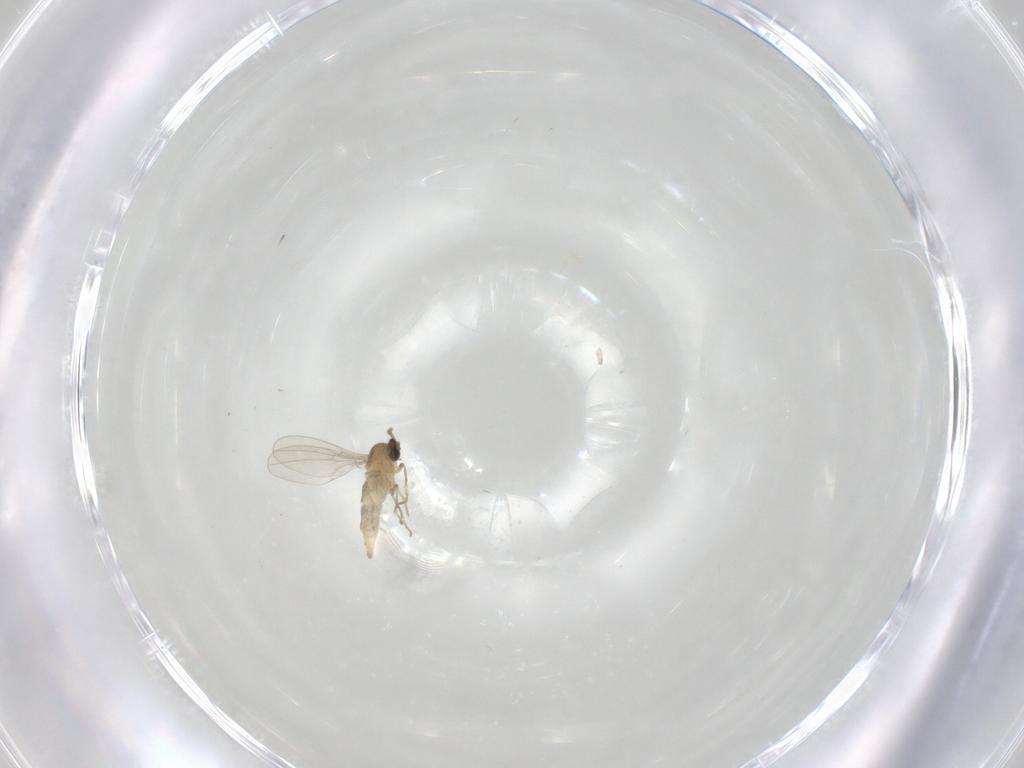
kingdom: Animalia
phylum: Arthropoda
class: Insecta
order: Diptera
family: Cecidomyiidae
